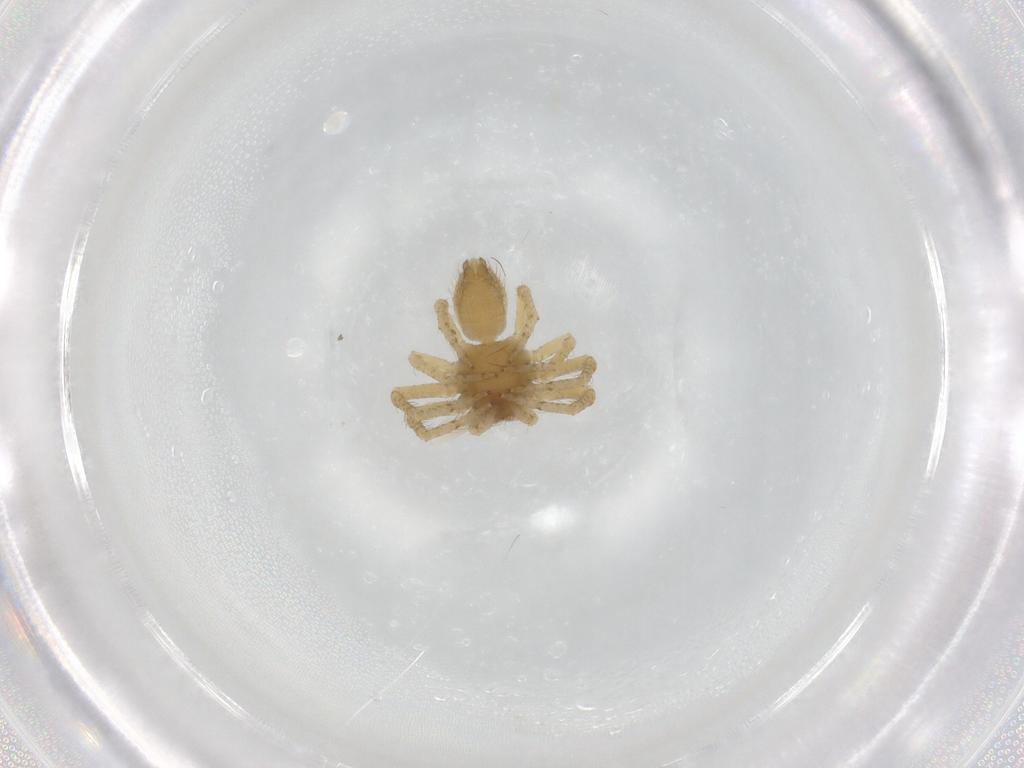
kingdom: Animalia
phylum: Arthropoda
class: Arachnida
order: Araneae
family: Thomisidae
